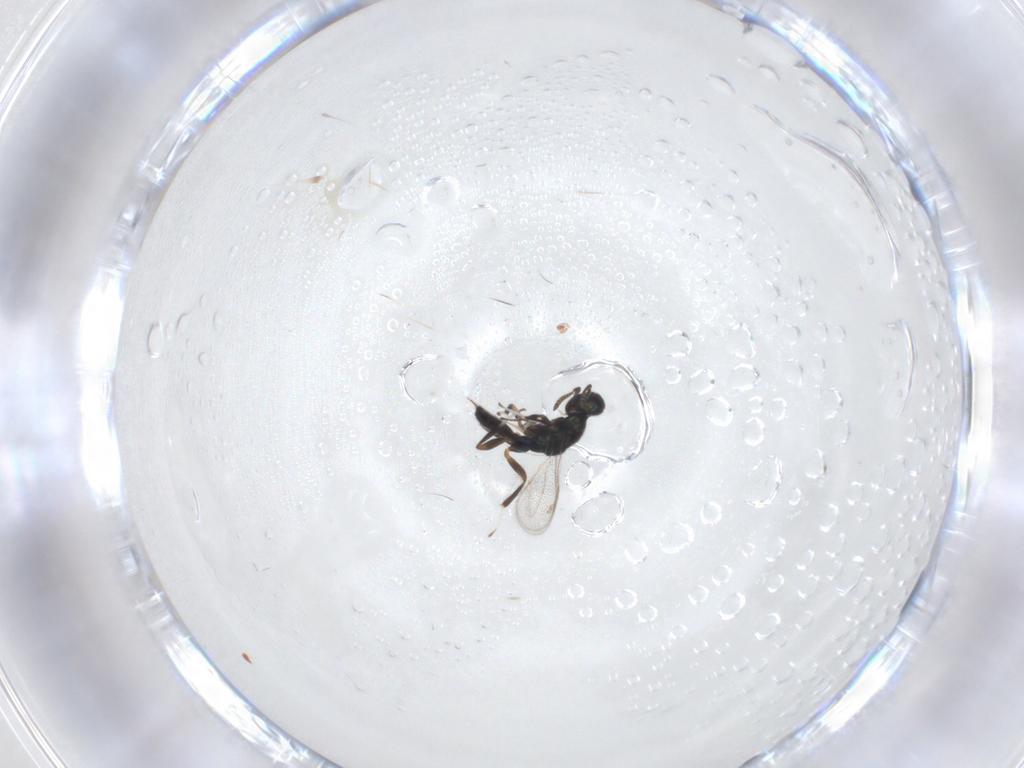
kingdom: Animalia
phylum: Arthropoda
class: Insecta
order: Hymenoptera
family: Cleonyminae
